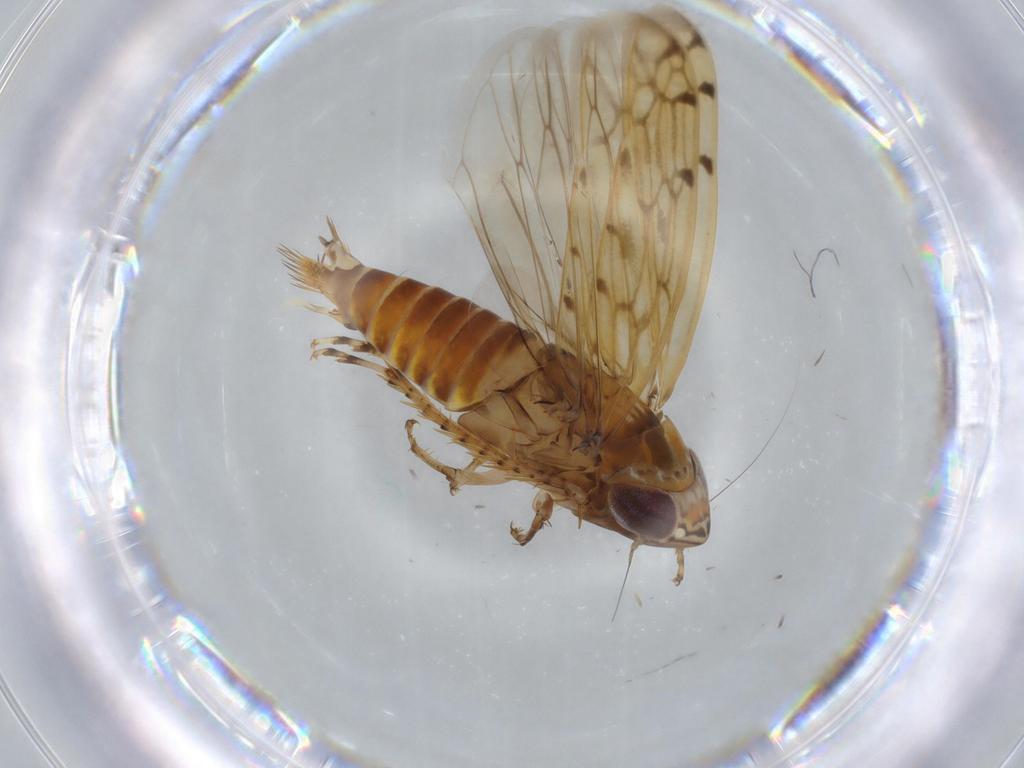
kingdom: Animalia
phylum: Arthropoda
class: Insecta
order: Hemiptera
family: Cicadellidae
